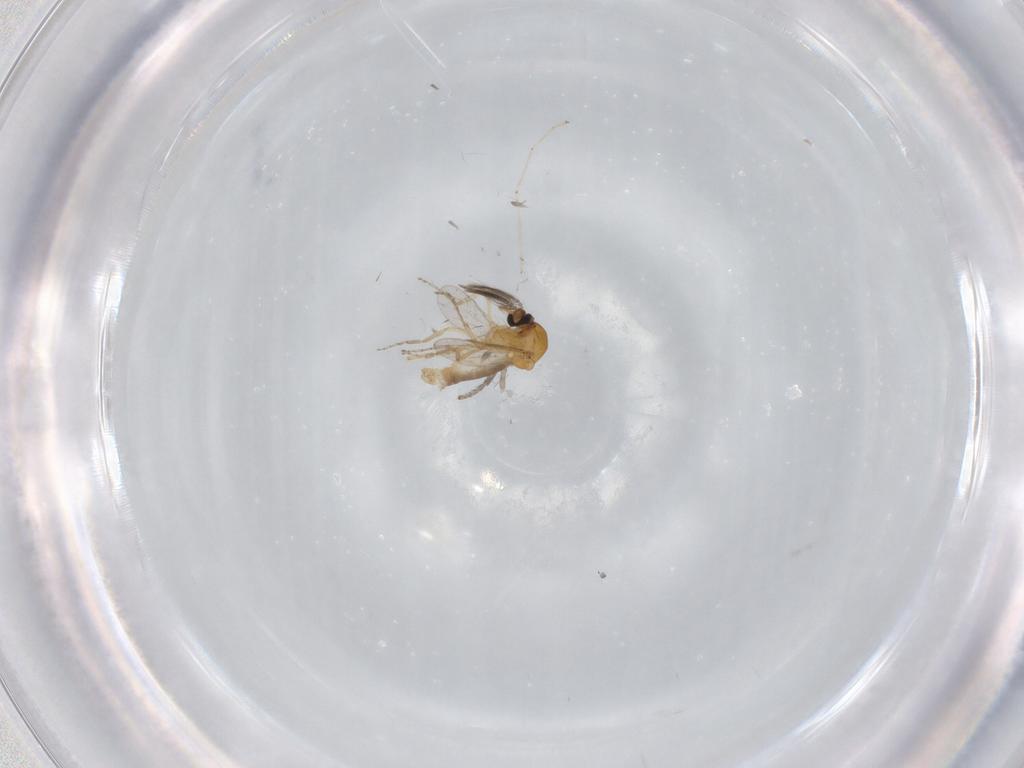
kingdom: Animalia
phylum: Arthropoda
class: Insecta
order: Diptera
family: Ceratopogonidae
